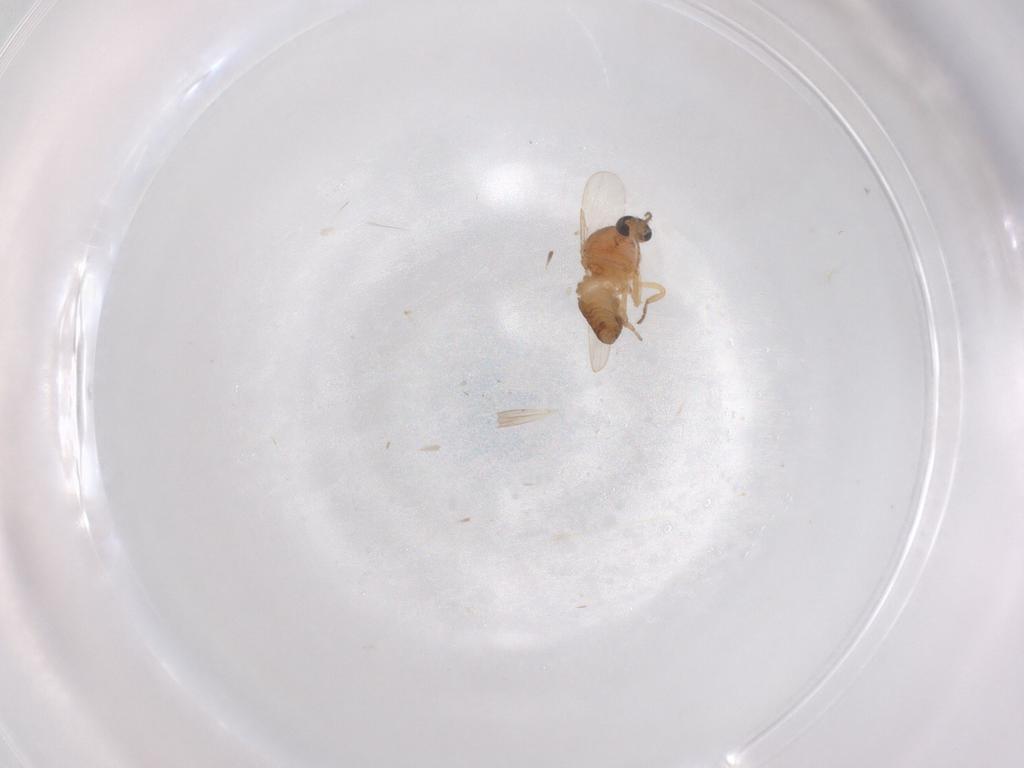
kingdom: Animalia
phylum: Arthropoda
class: Insecta
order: Diptera
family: Ceratopogonidae
